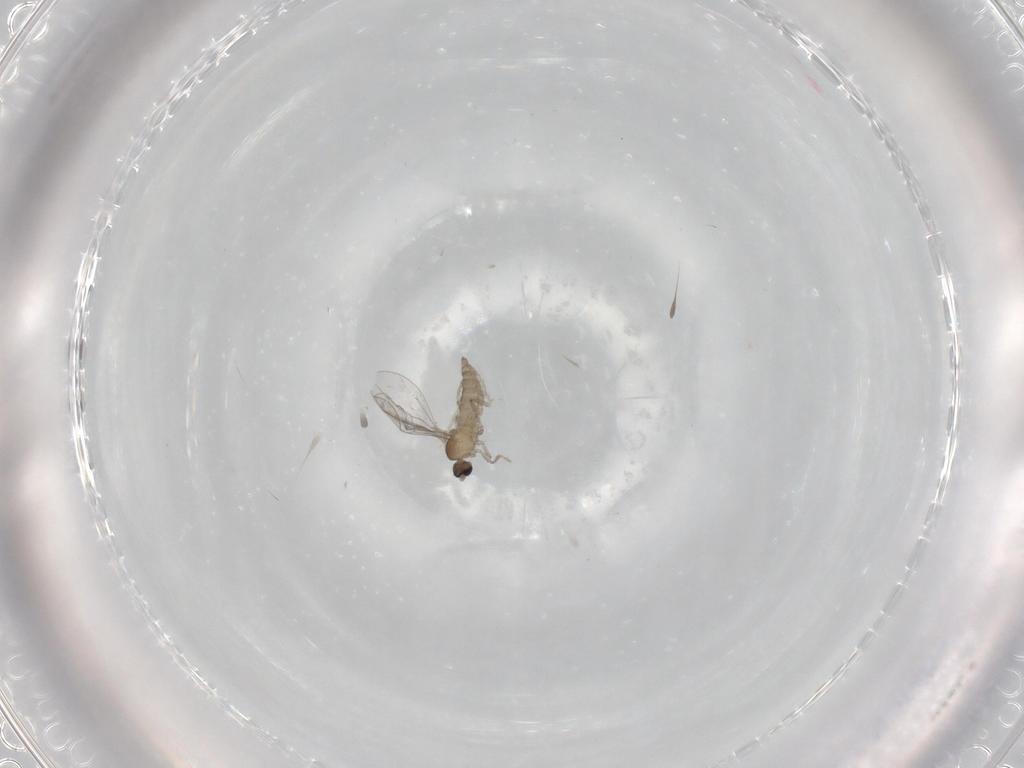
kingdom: Animalia
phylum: Arthropoda
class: Insecta
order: Diptera
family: Cecidomyiidae
